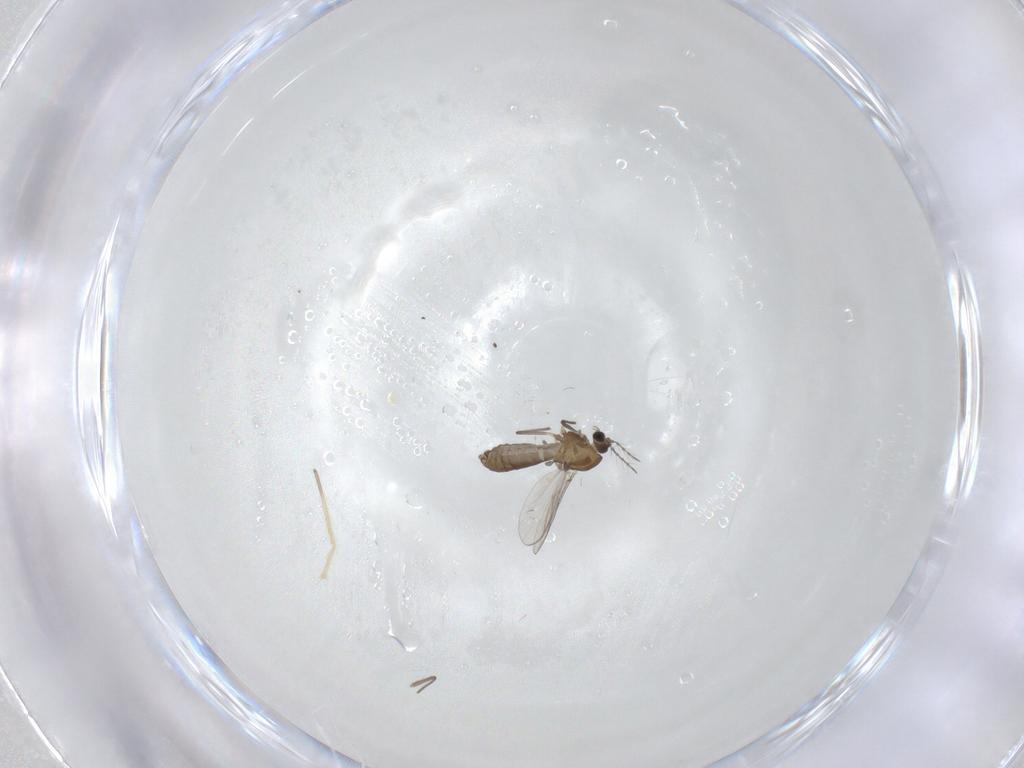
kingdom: Animalia
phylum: Arthropoda
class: Insecta
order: Diptera
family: Chironomidae
